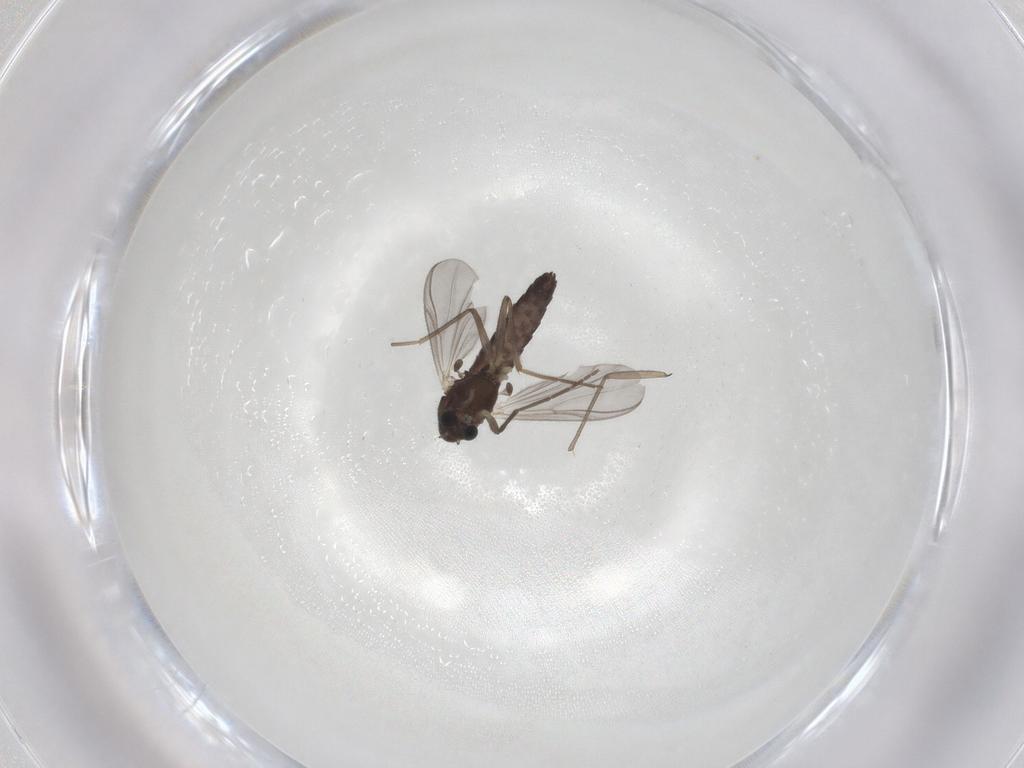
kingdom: Animalia
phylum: Arthropoda
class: Insecta
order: Diptera
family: Chironomidae
